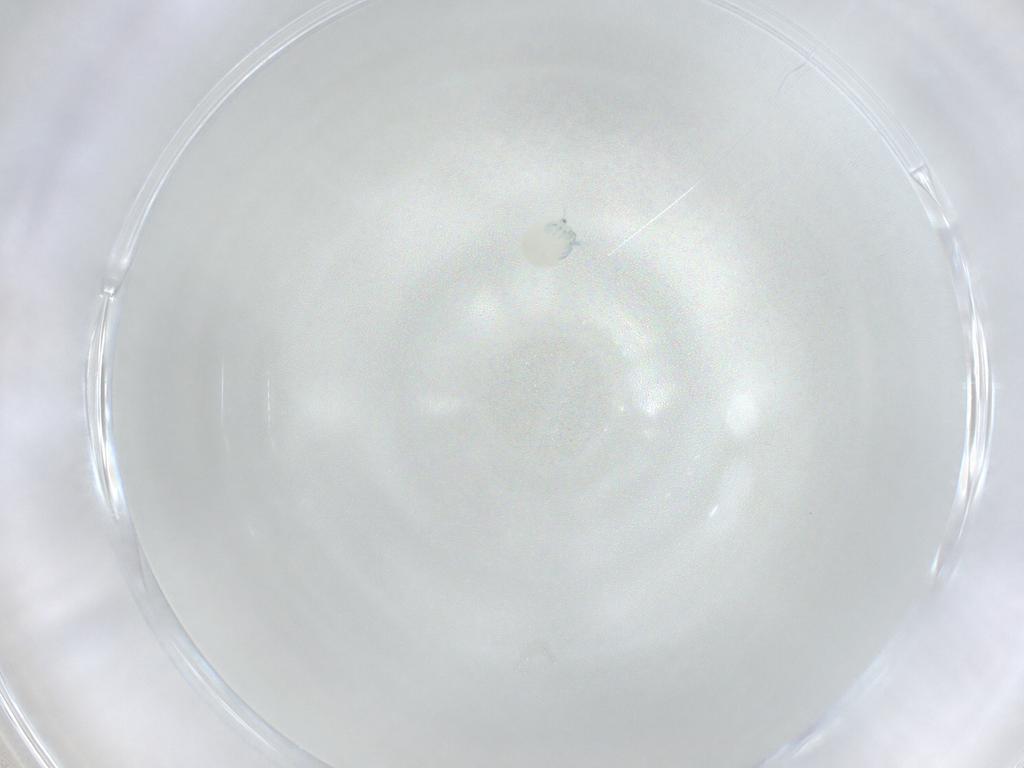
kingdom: Animalia
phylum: Arthropoda
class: Arachnida
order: Trombidiformes
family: Arrenuridae
